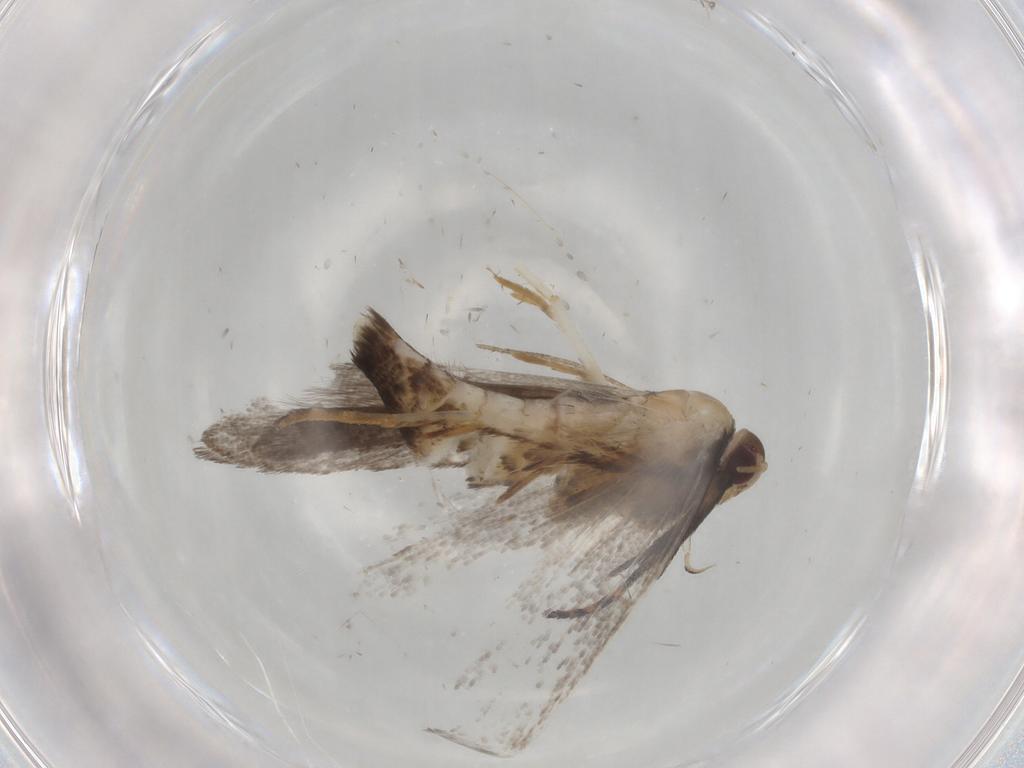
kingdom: Animalia
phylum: Arthropoda
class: Insecta
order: Lepidoptera
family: Gelechiidae
